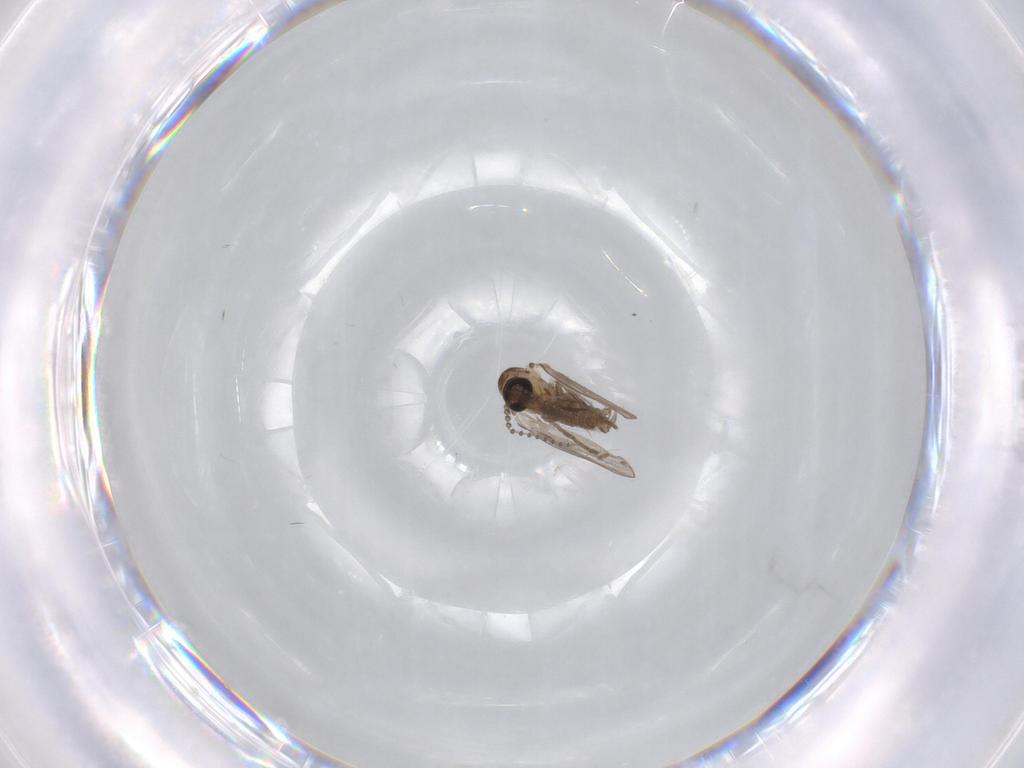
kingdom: Animalia
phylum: Arthropoda
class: Insecta
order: Diptera
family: Psychodidae
